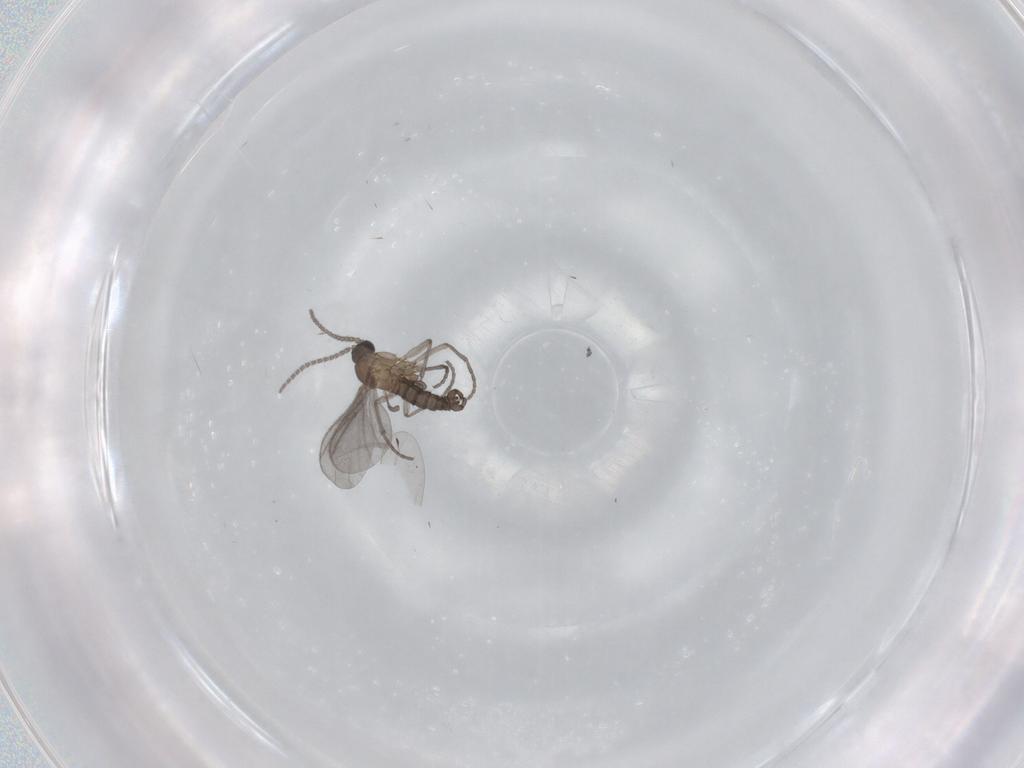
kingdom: Animalia
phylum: Arthropoda
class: Insecta
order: Diptera
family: Sciaridae
